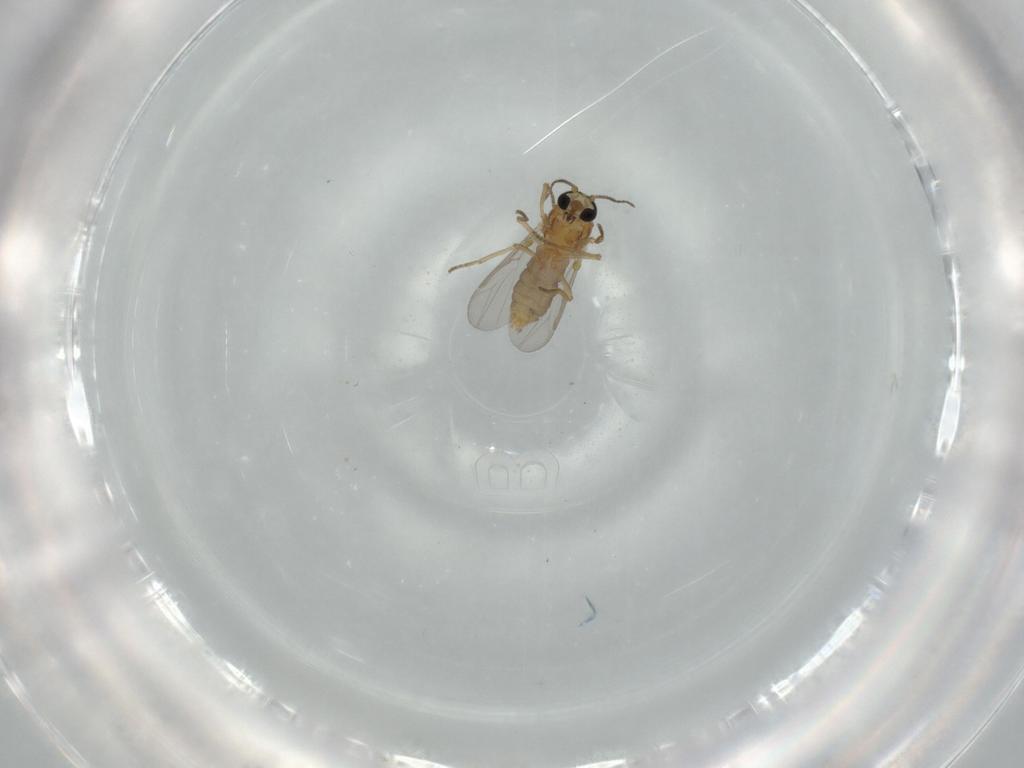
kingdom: Animalia
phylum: Arthropoda
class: Insecta
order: Diptera
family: Ceratopogonidae
